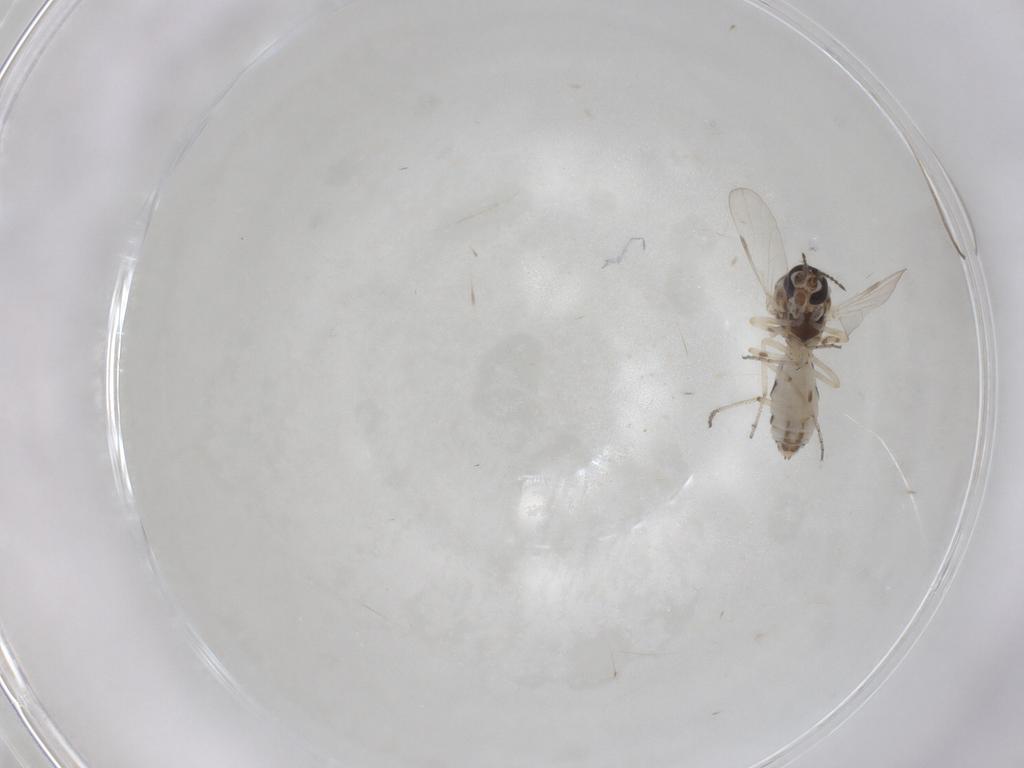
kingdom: Animalia
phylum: Arthropoda
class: Insecta
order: Diptera
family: Ceratopogonidae
